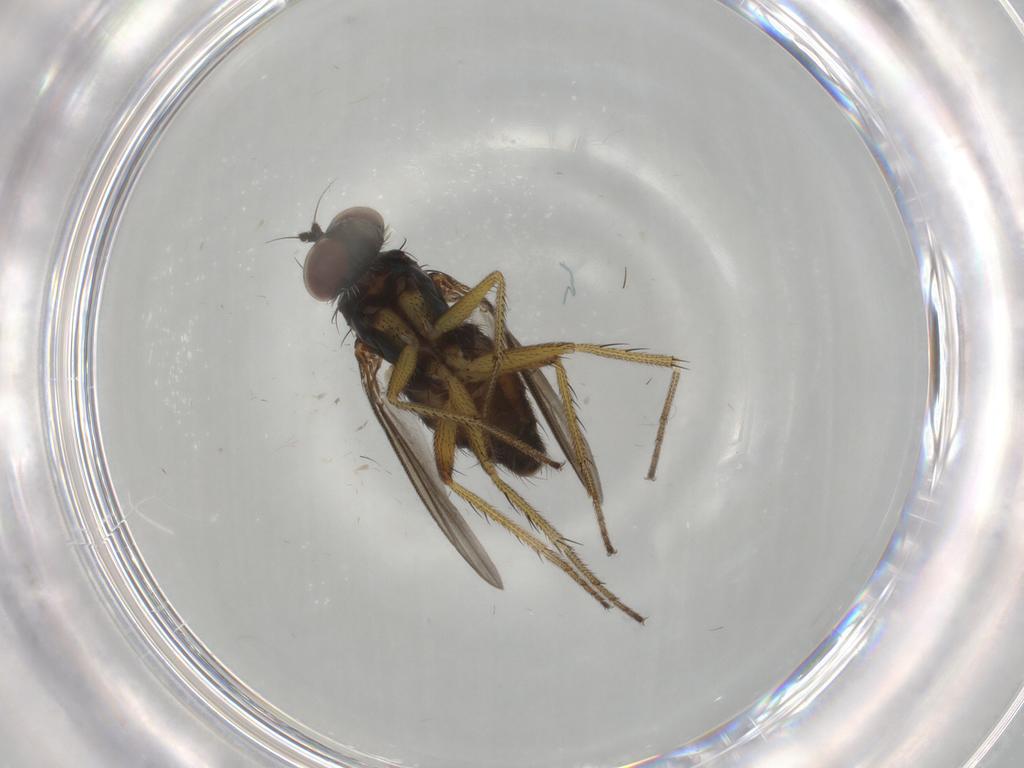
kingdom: Animalia
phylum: Arthropoda
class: Insecta
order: Diptera
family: Dolichopodidae
